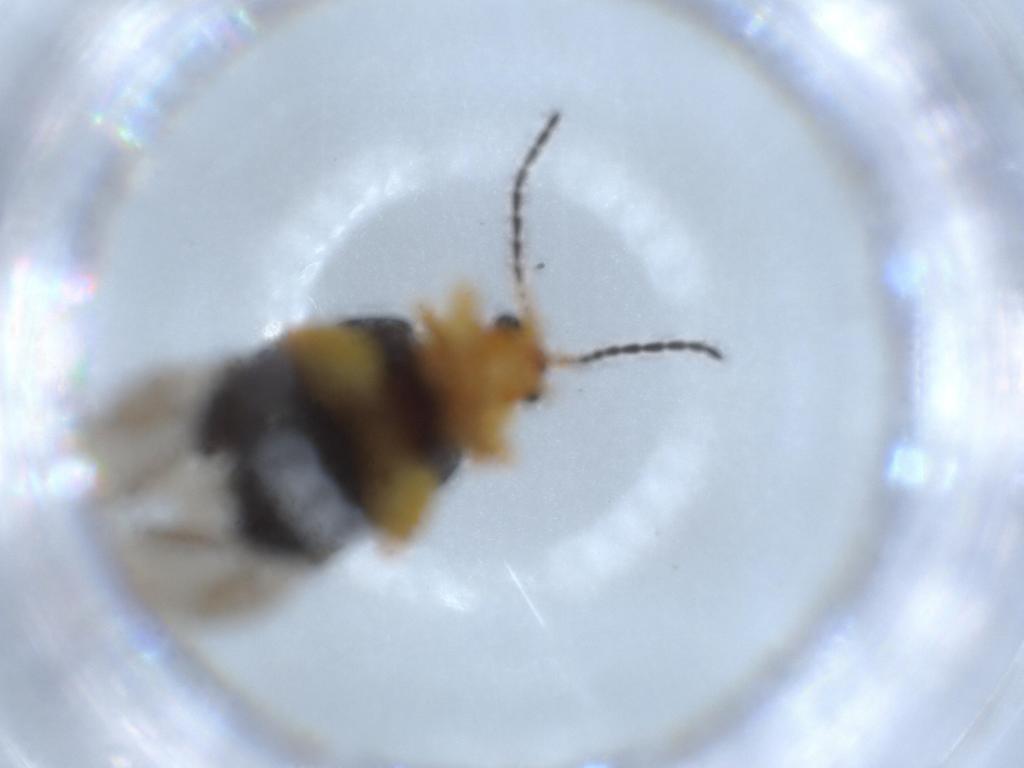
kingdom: Animalia
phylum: Arthropoda
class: Insecta
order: Coleoptera
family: Chrysomelidae
